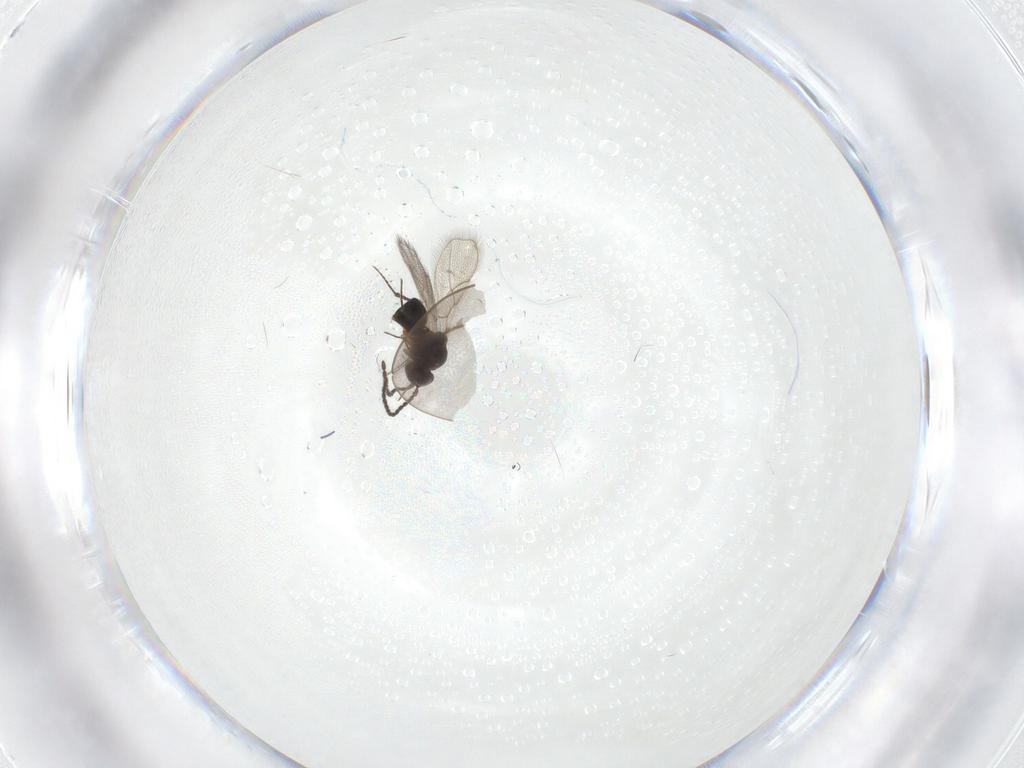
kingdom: Animalia
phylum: Arthropoda
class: Insecta
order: Hymenoptera
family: Figitidae
